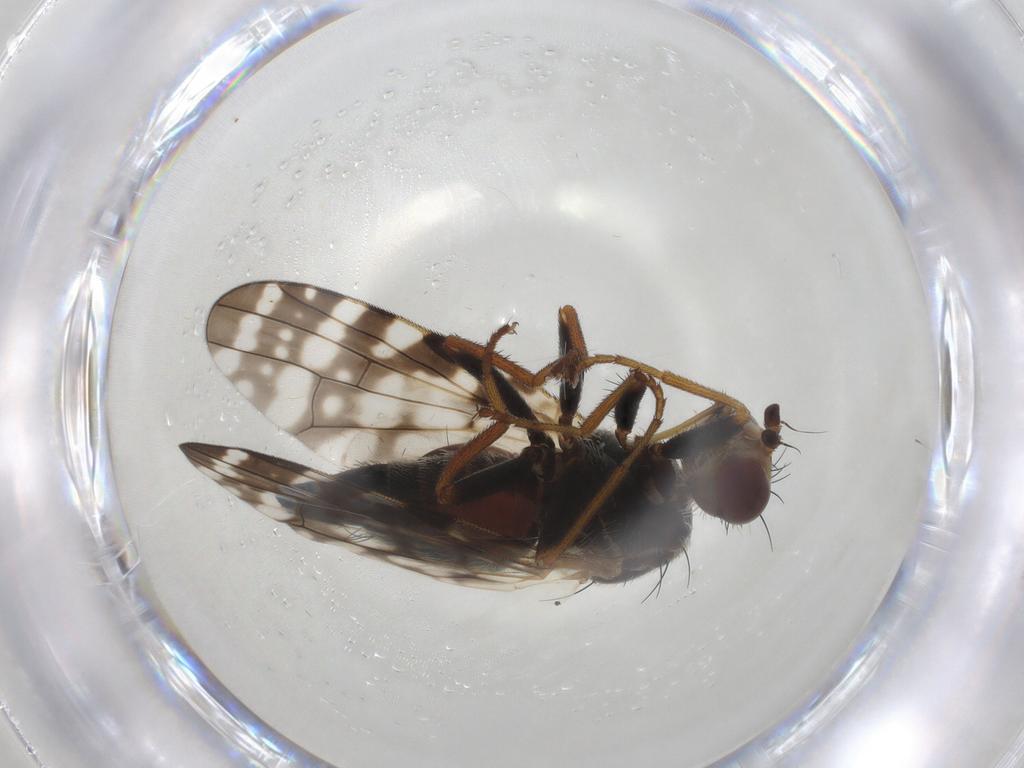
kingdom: Animalia
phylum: Arthropoda
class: Insecta
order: Diptera
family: Tephritidae
